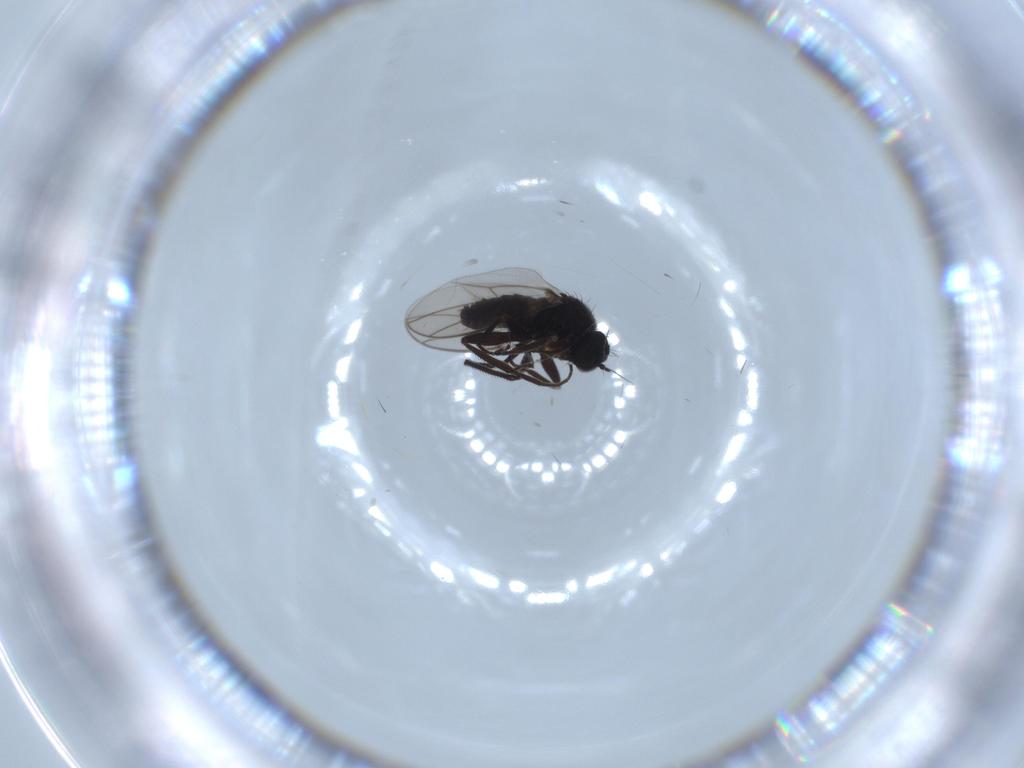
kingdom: Animalia
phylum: Arthropoda
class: Insecta
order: Diptera
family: Hybotidae
